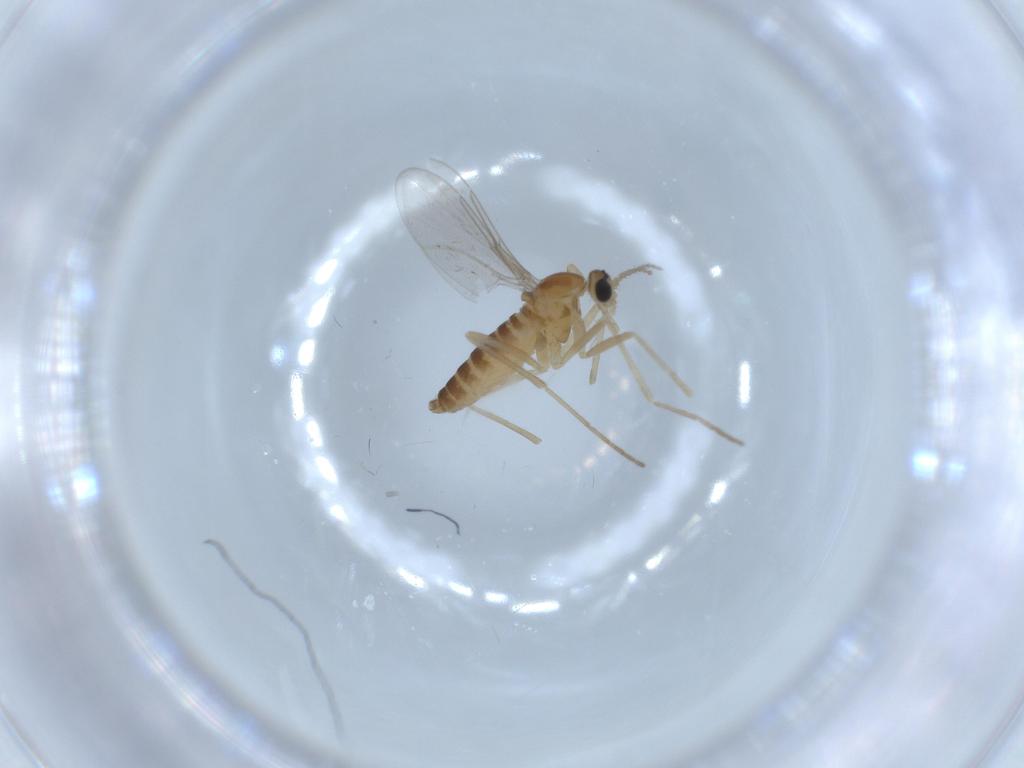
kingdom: Animalia
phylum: Arthropoda
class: Insecta
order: Diptera
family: Cecidomyiidae
